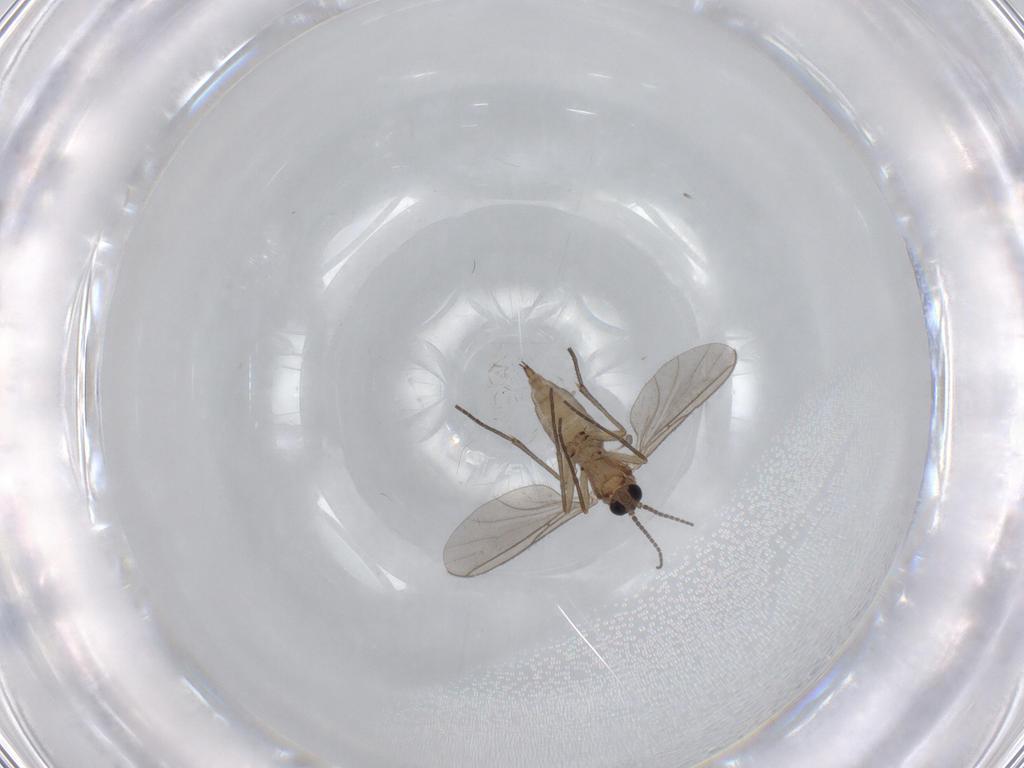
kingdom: Animalia
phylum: Arthropoda
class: Insecta
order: Diptera
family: Sciaridae
